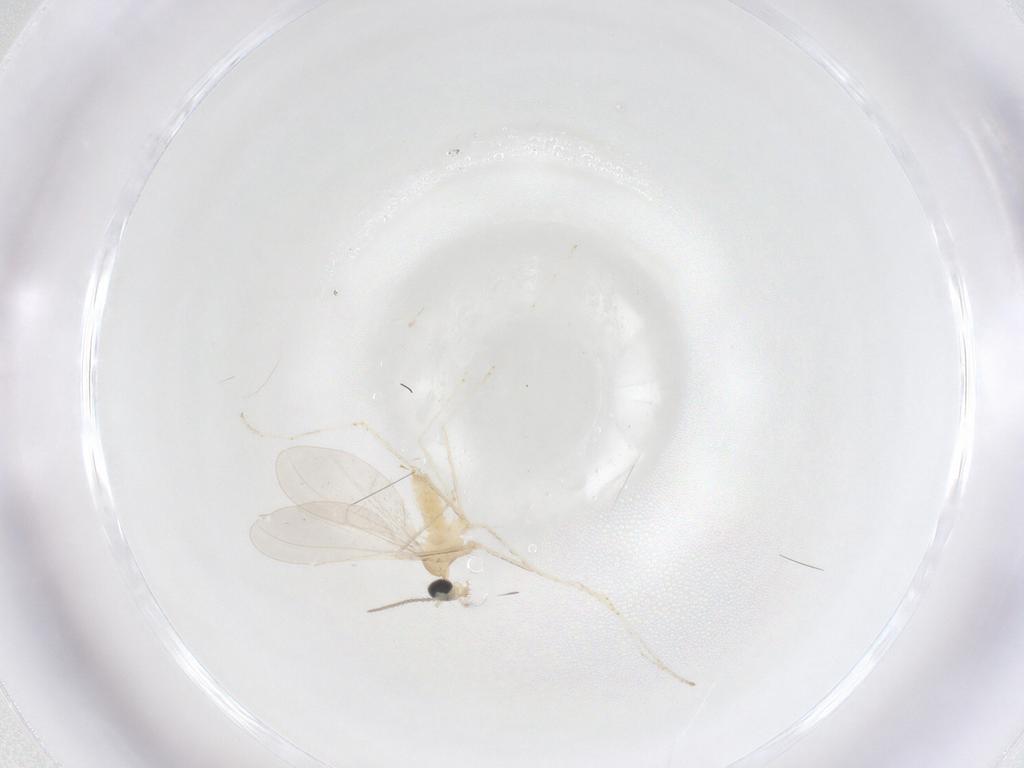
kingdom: Animalia
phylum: Arthropoda
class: Insecta
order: Diptera
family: Cecidomyiidae
